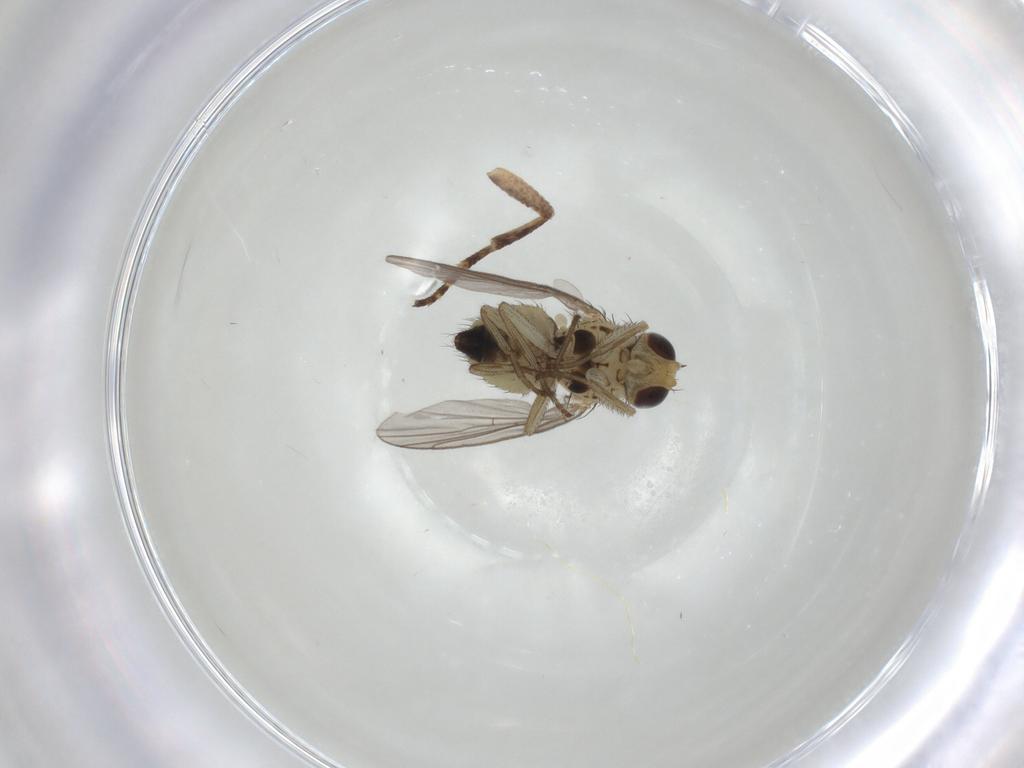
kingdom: Animalia
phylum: Arthropoda
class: Insecta
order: Diptera
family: Agromyzidae
